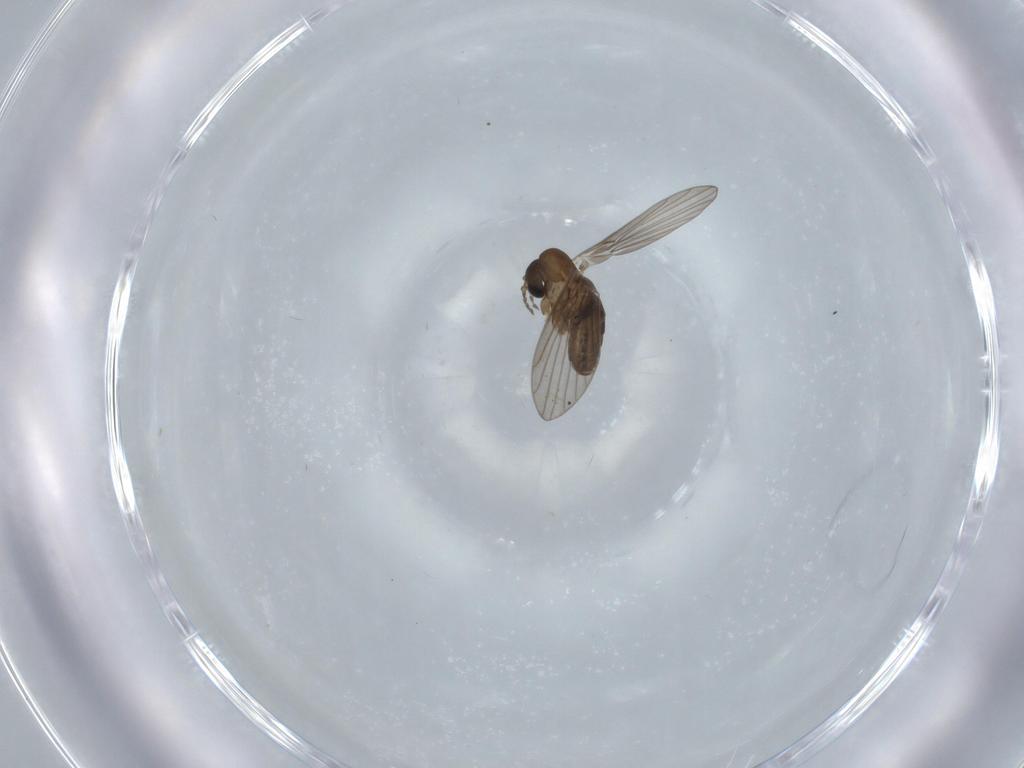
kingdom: Animalia
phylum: Arthropoda
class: Insecta
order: Diptera
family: Psychodidae
